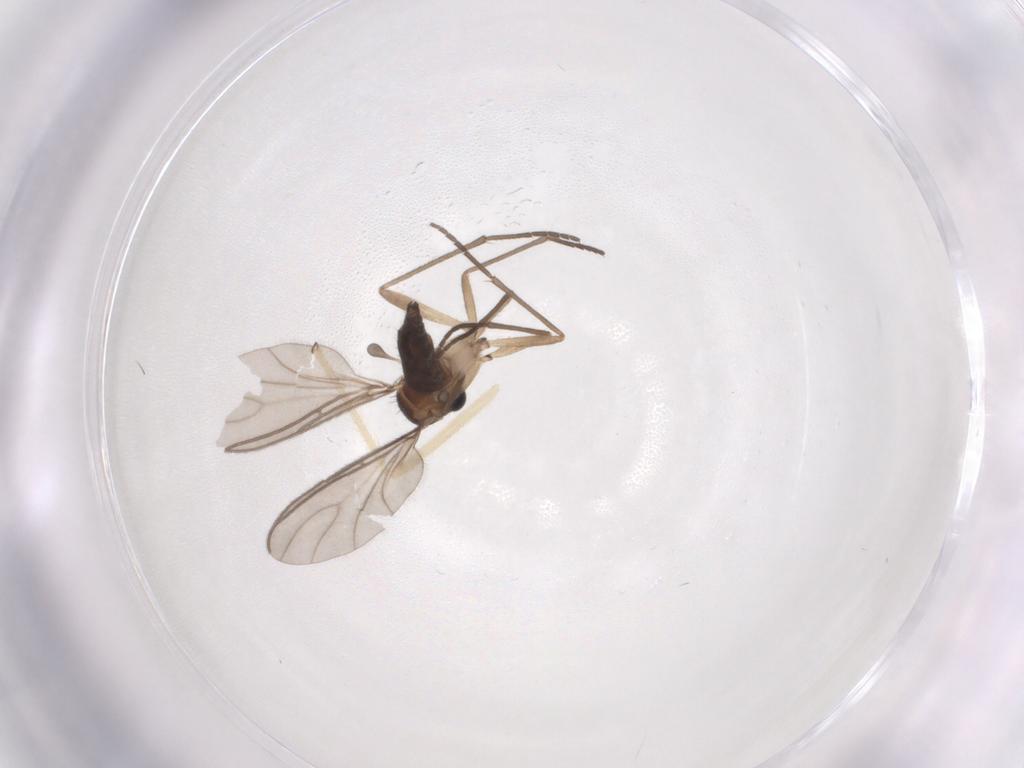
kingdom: Animalia
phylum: Arthropoda
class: Insecta
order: Diptera
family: Sciaridae
